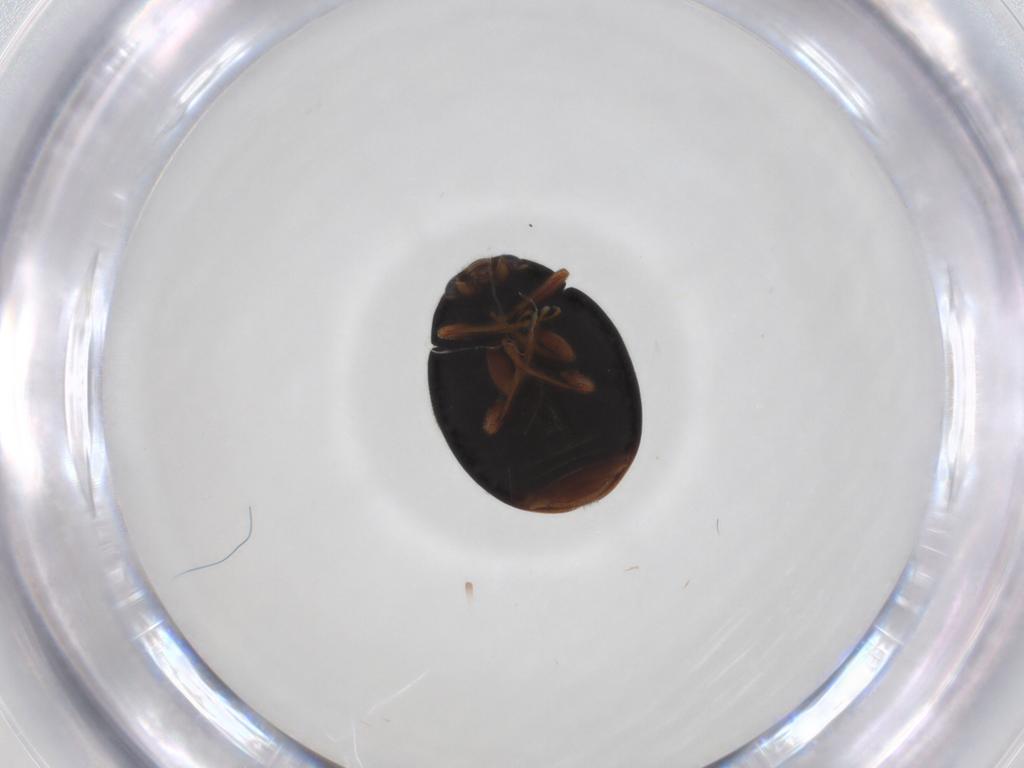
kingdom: Animalia
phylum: Arthropoda
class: Insecta
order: Coleoptera
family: Coccinellidae
